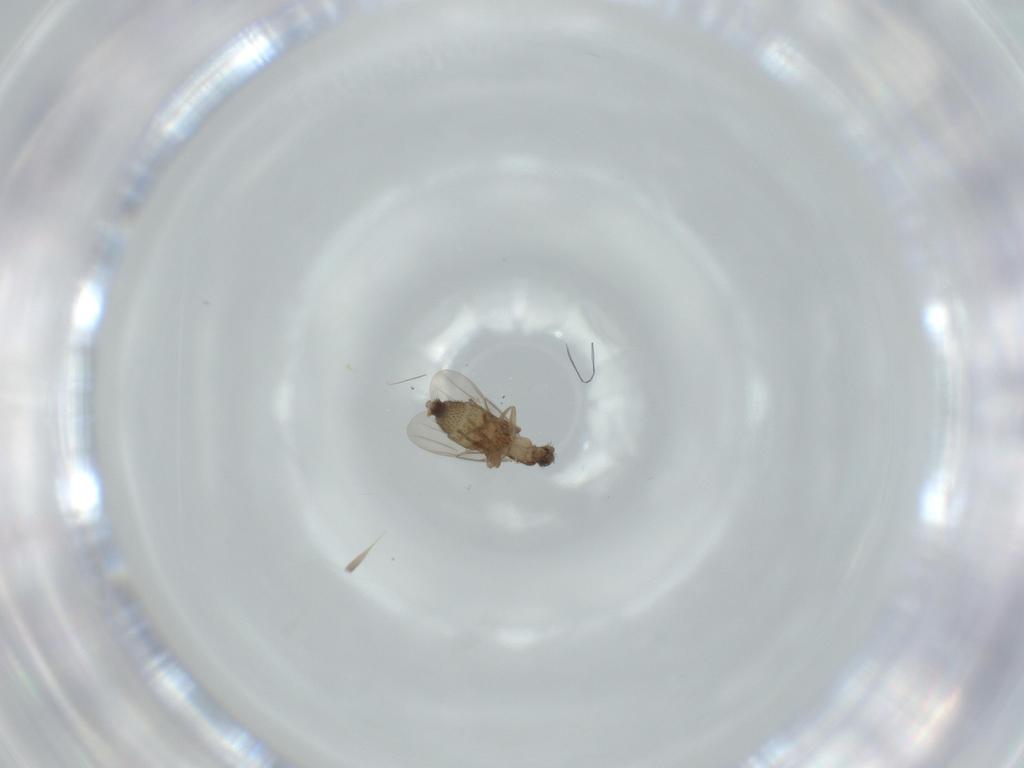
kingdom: Animalia
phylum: Arthropoda
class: Insecta
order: Diptera
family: Phoridae
